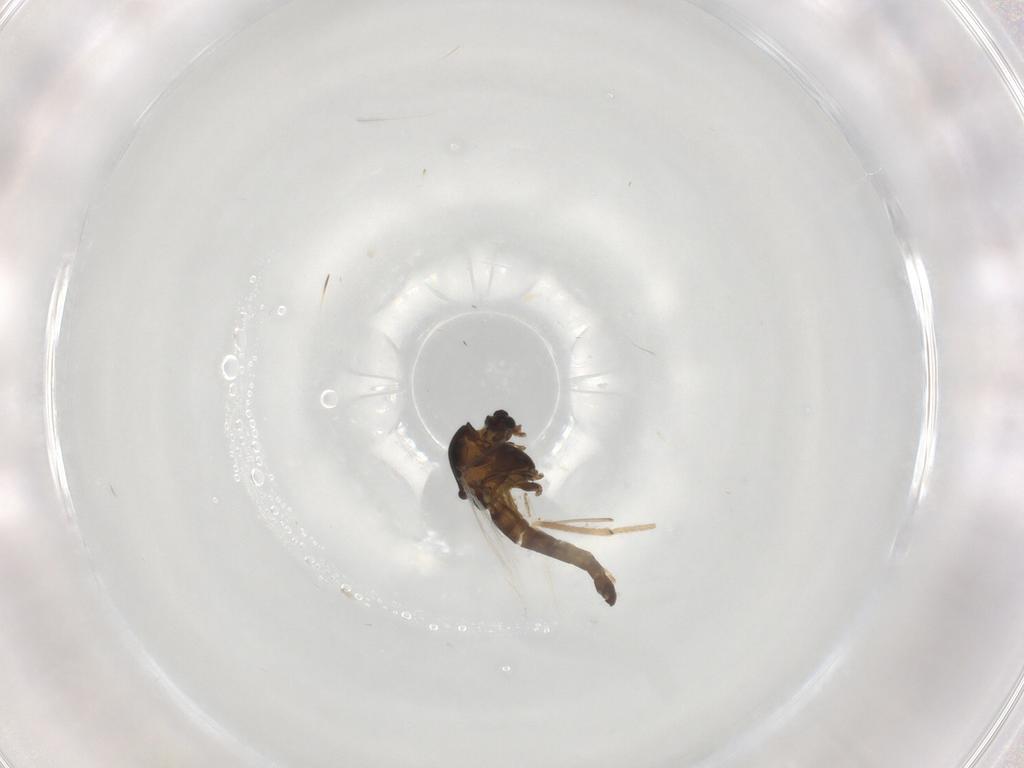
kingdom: Animalia
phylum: Arthropoda
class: Insecta
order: Diptera
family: Chironomidae
